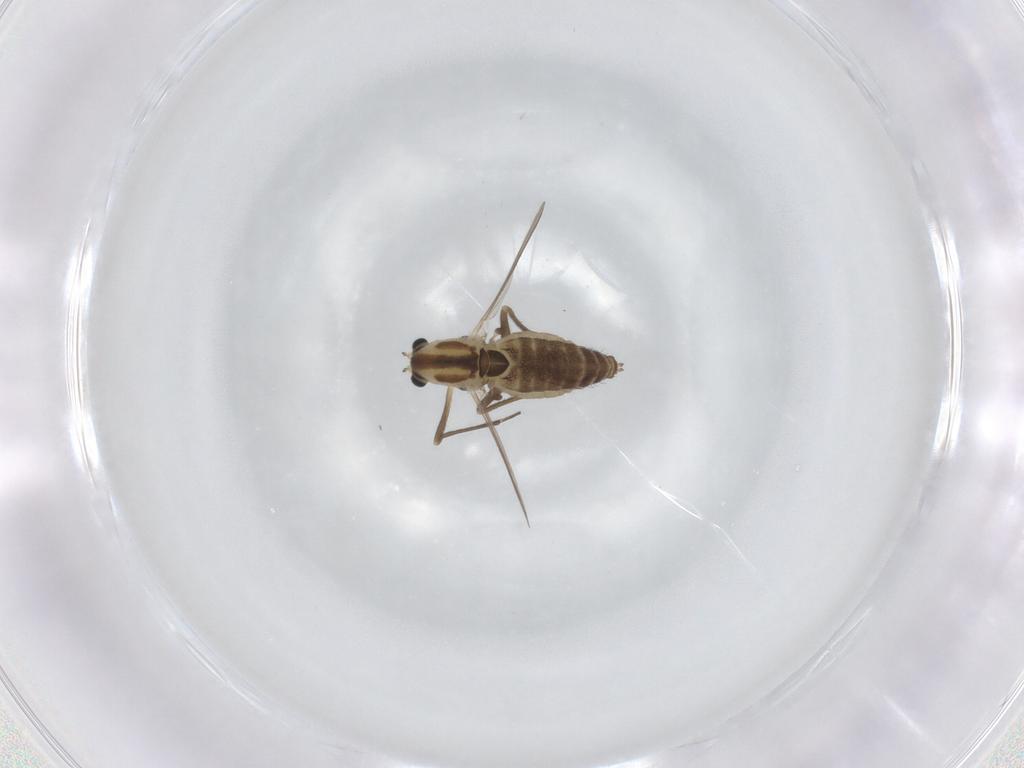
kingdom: Animalia
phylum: Arthropoda
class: Insecta
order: Diptera
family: Chironomidae
